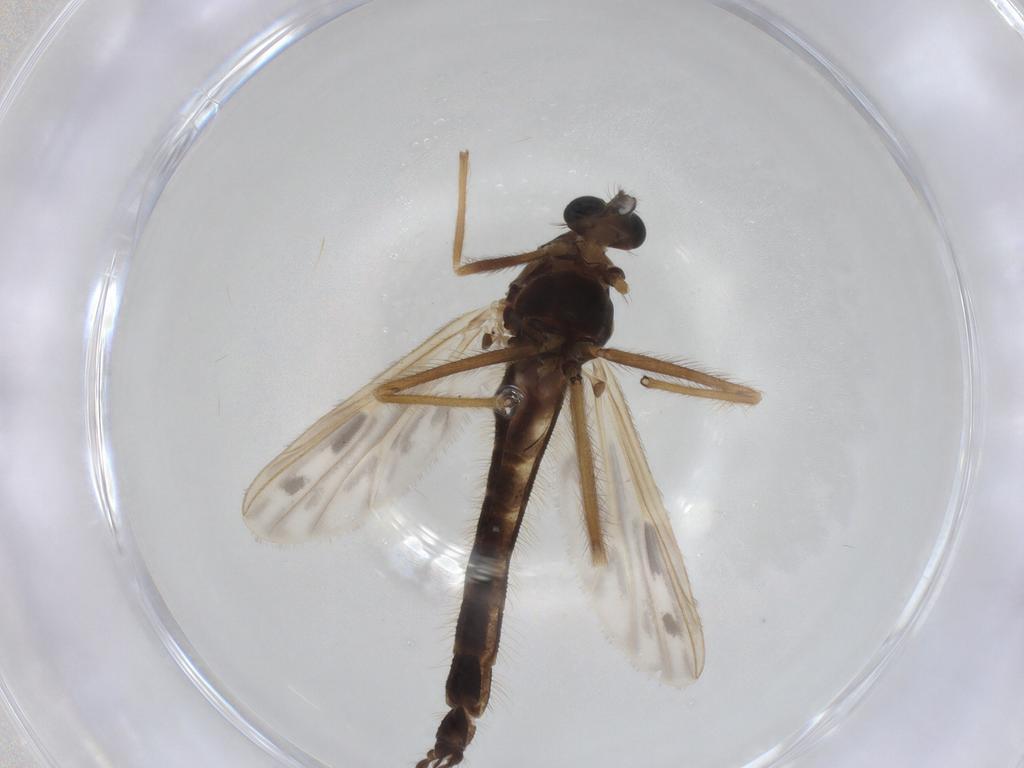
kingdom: Animalia
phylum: Arthropoda
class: Insecta
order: Diptera
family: Chironomidae
